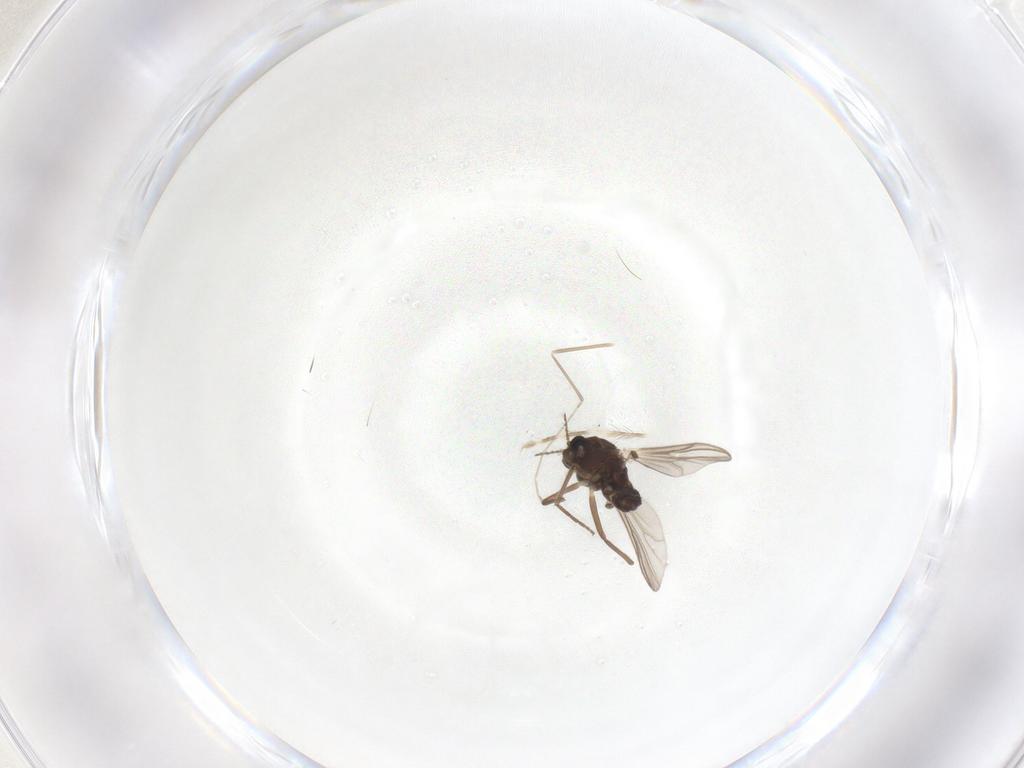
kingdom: Animalia
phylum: Arthropoda
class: Insecta
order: Diptera
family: Chironomidae
